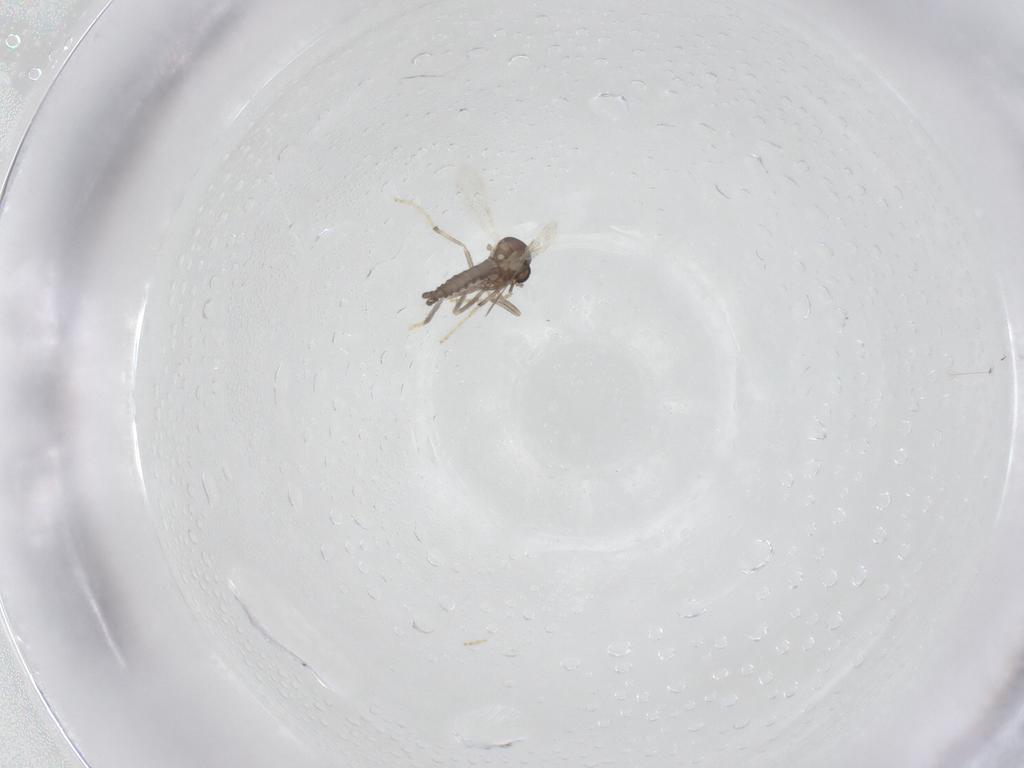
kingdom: Animalia
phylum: Arthropoda
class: Insecta
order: Diptera
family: Ceratopogonidae
